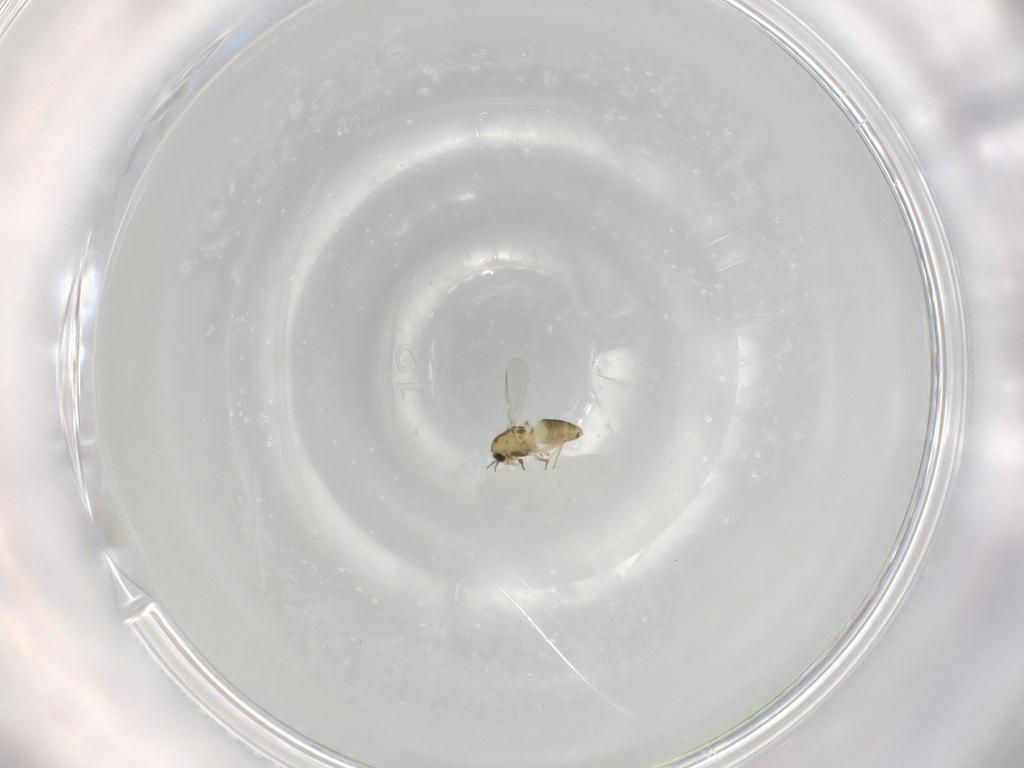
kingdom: Animalia
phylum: Arthropoda
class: Insecta
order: Diptera
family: Chironomidae
